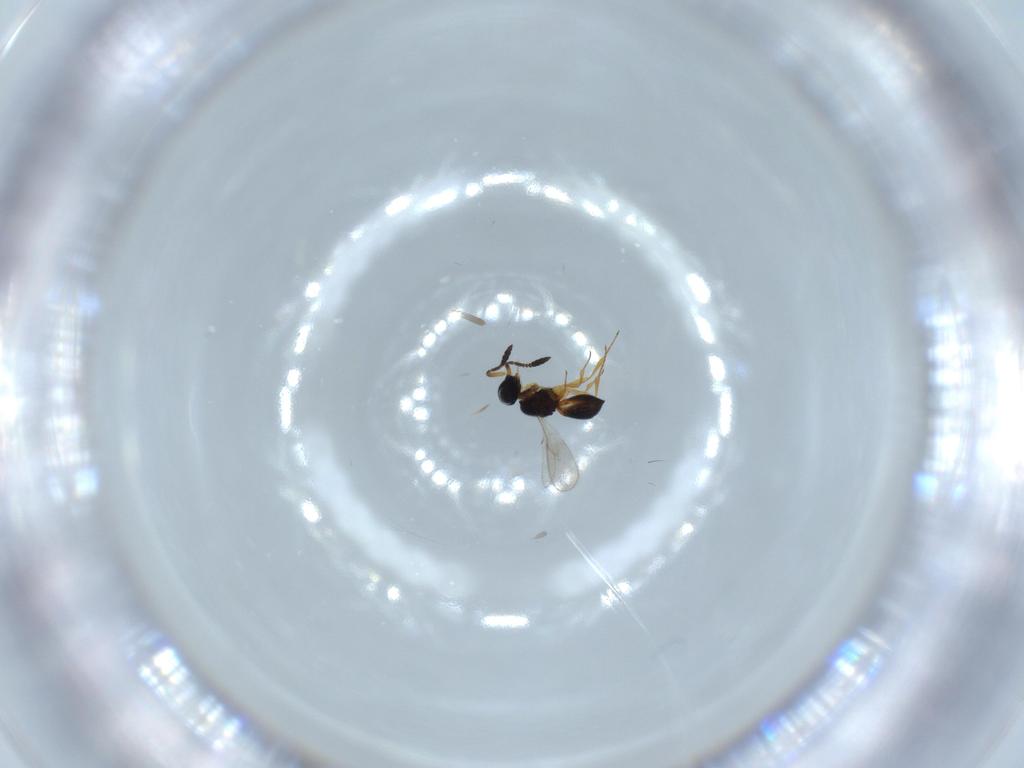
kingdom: Animalia
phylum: Arthropoda
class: Insecta
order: Hymenoptera
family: Scelionidae
